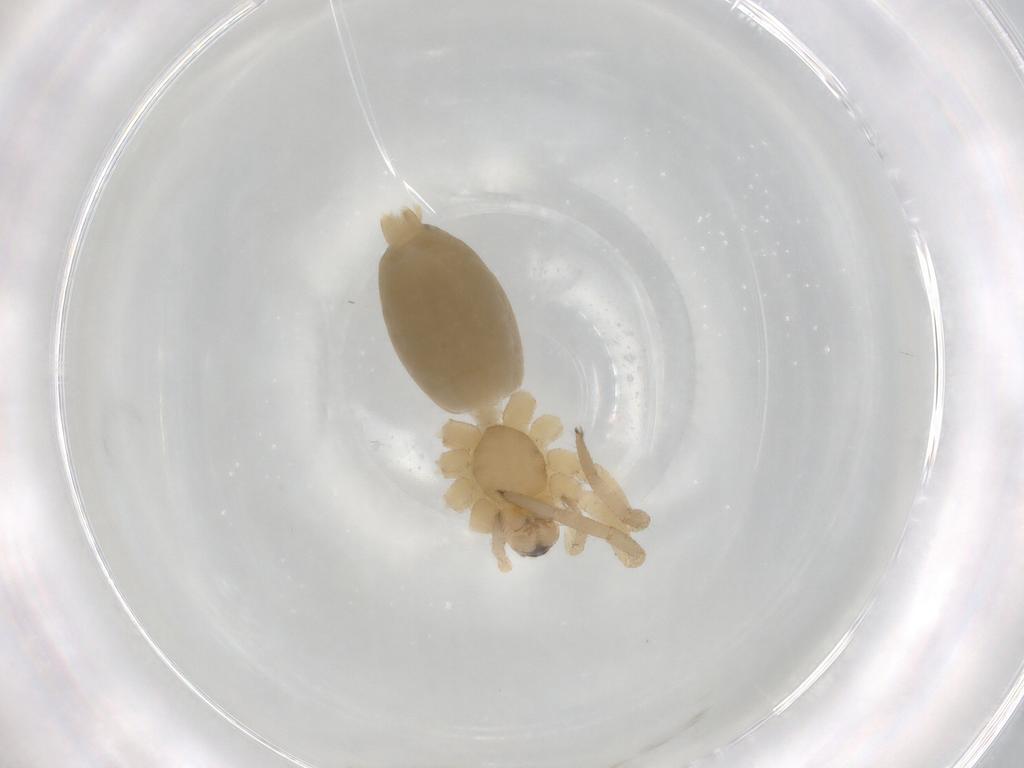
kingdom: Animalia
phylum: Arthropoda
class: Arachnida
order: Araneae
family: Gnaphosidae
